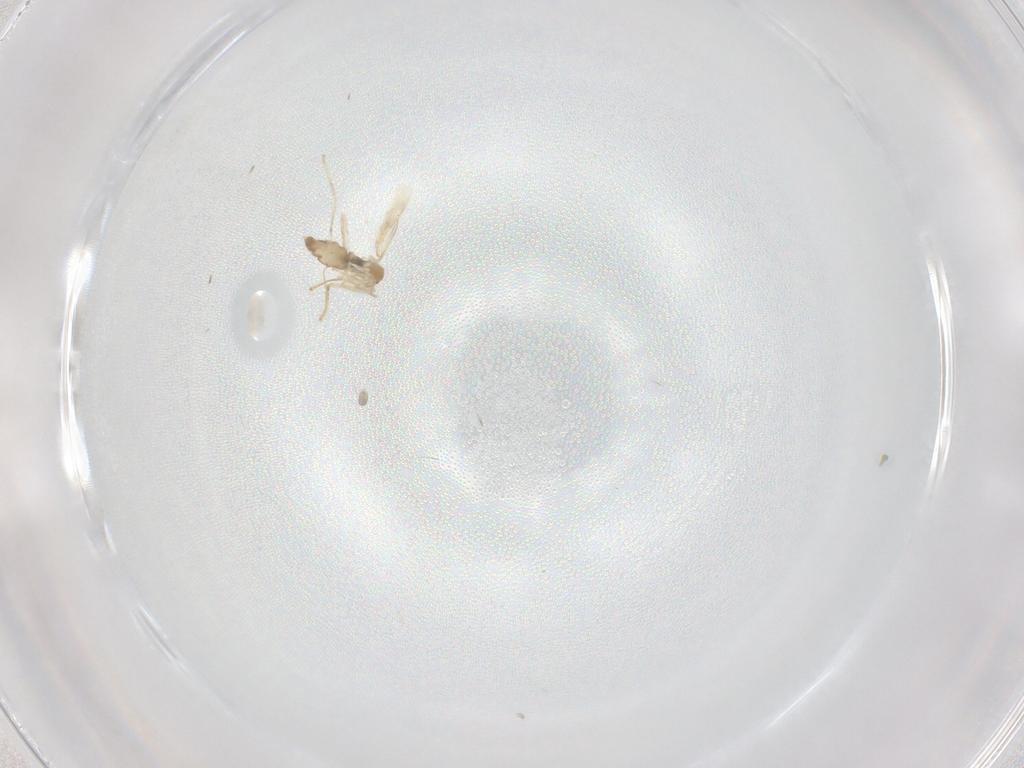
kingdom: Animalia
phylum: Arthropoda
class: Insecta
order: Diptera
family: Cecidomyiidae
